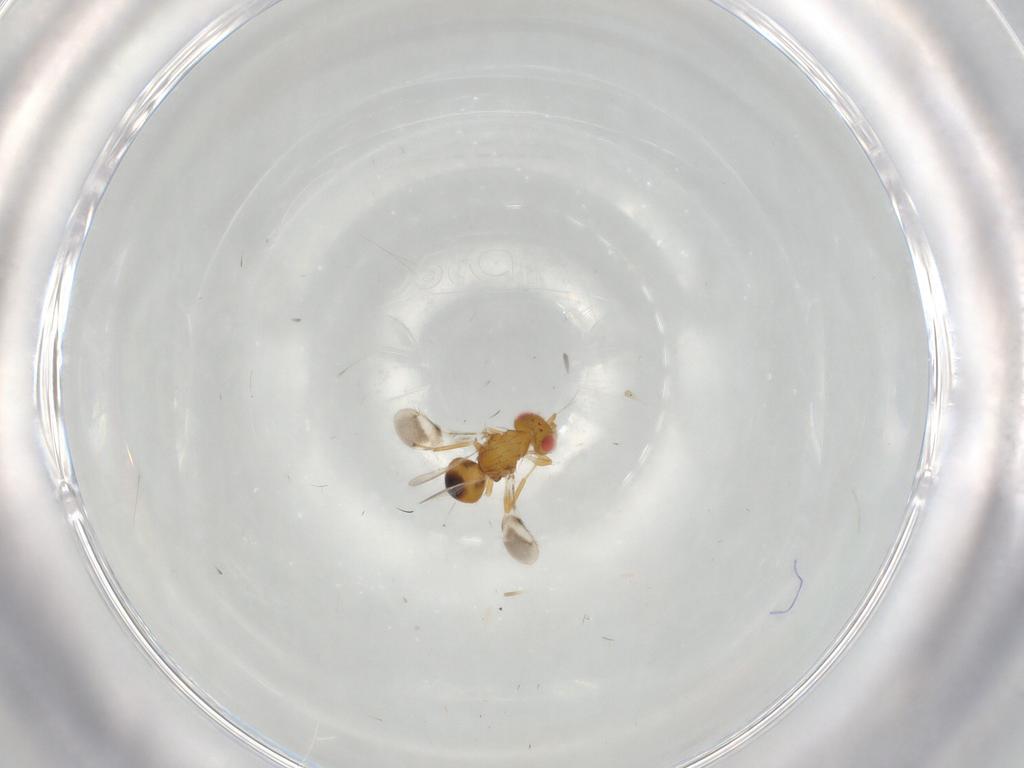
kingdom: Animalia
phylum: Arthropoda
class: Insecta
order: Hymenoptera
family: Eulophidae
